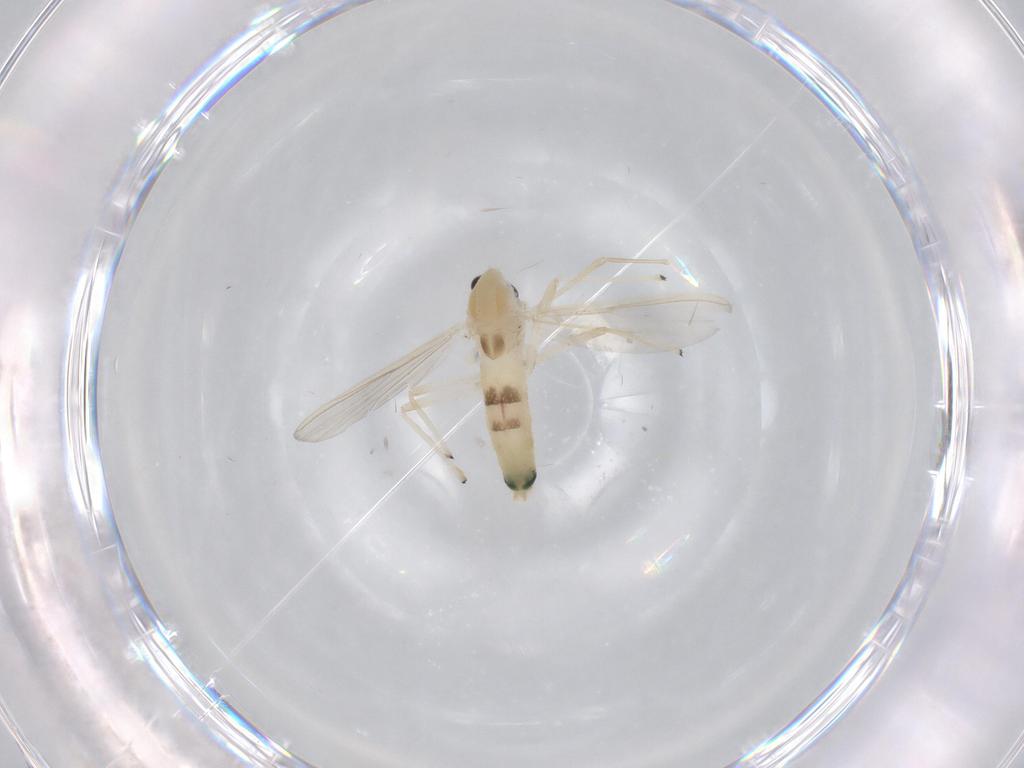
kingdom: Animalia
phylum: Arthropoda
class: Insecta
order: Diptera
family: Chironomidae
